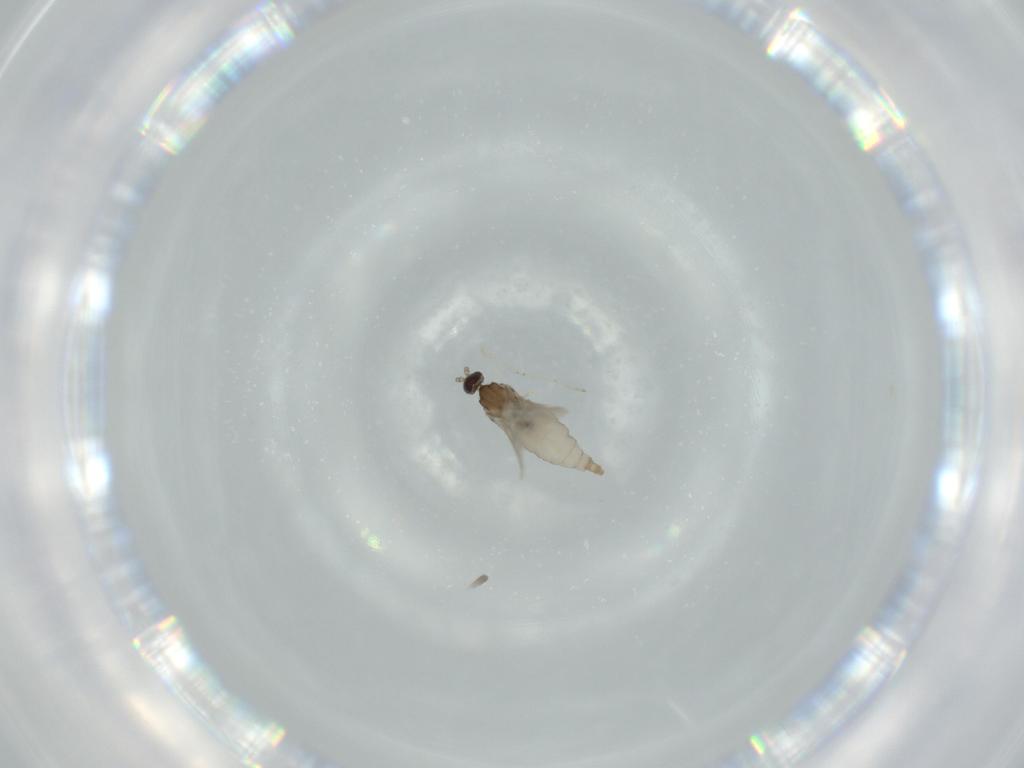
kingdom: Animalia
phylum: Arthropoda
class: Insecta
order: Diptera
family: Cecidomyiidae
